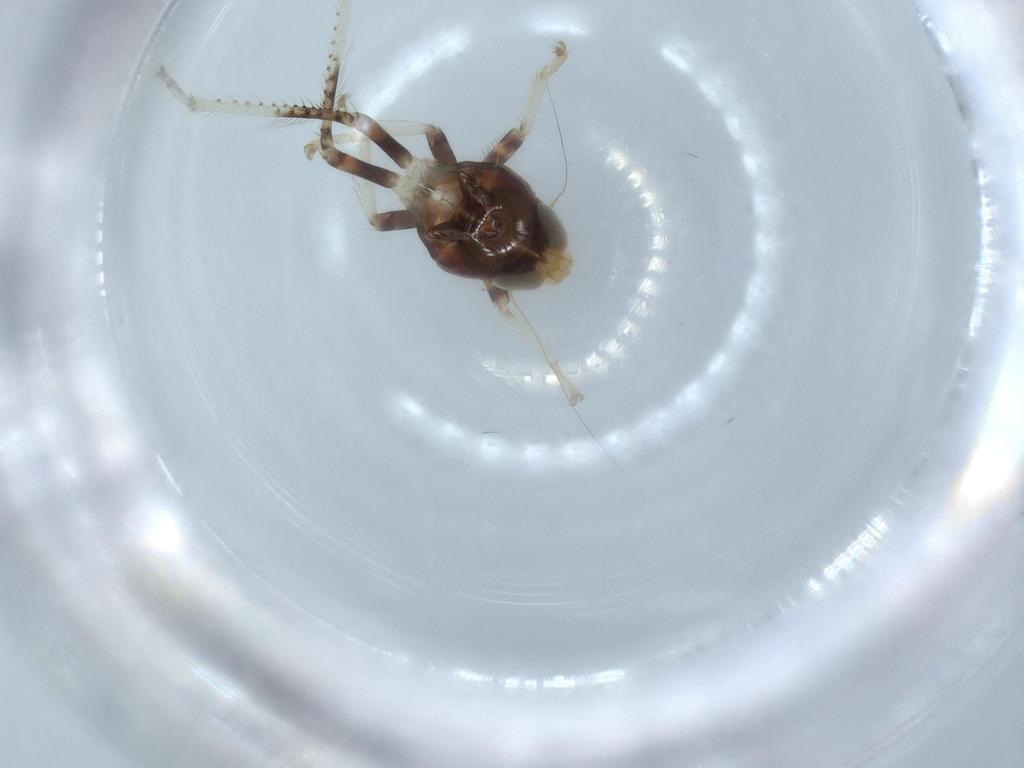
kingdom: Animalia
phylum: Arthropoda
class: Insecta
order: Hemiptera
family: Cicadellidae
